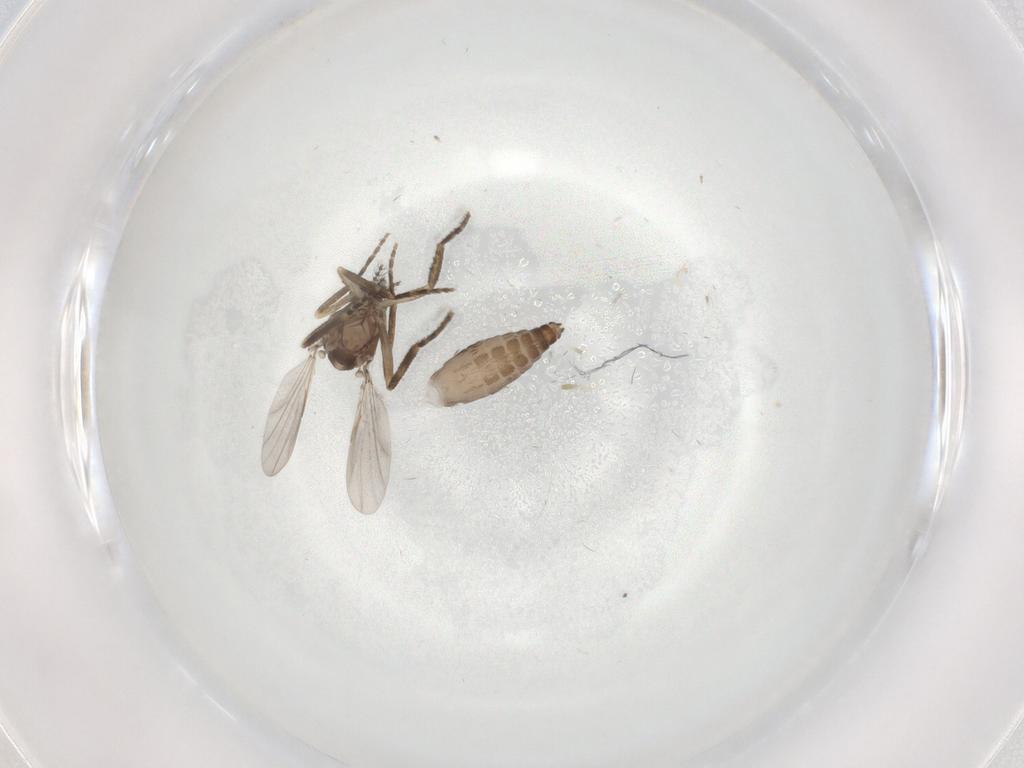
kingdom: Animalia
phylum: Arthropoda
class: Insecta
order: Diptera
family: Ceratopogonidae
